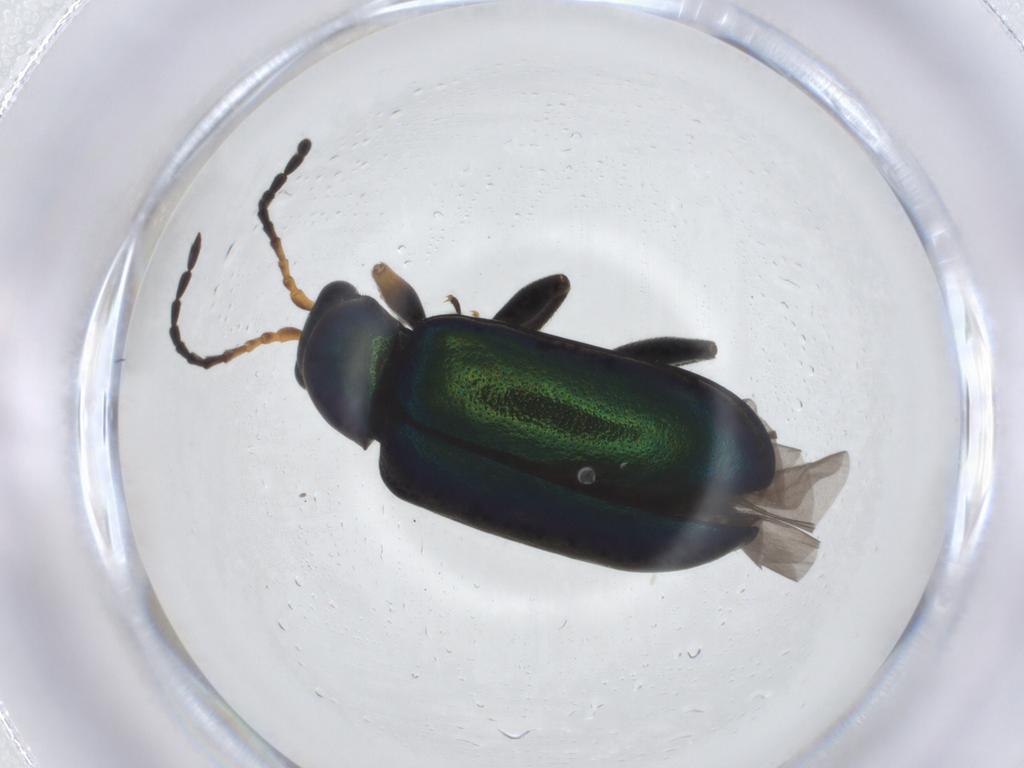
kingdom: Animalia
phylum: Arthropoda
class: Insecta
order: Coleoptera
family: Chrysomelidae
